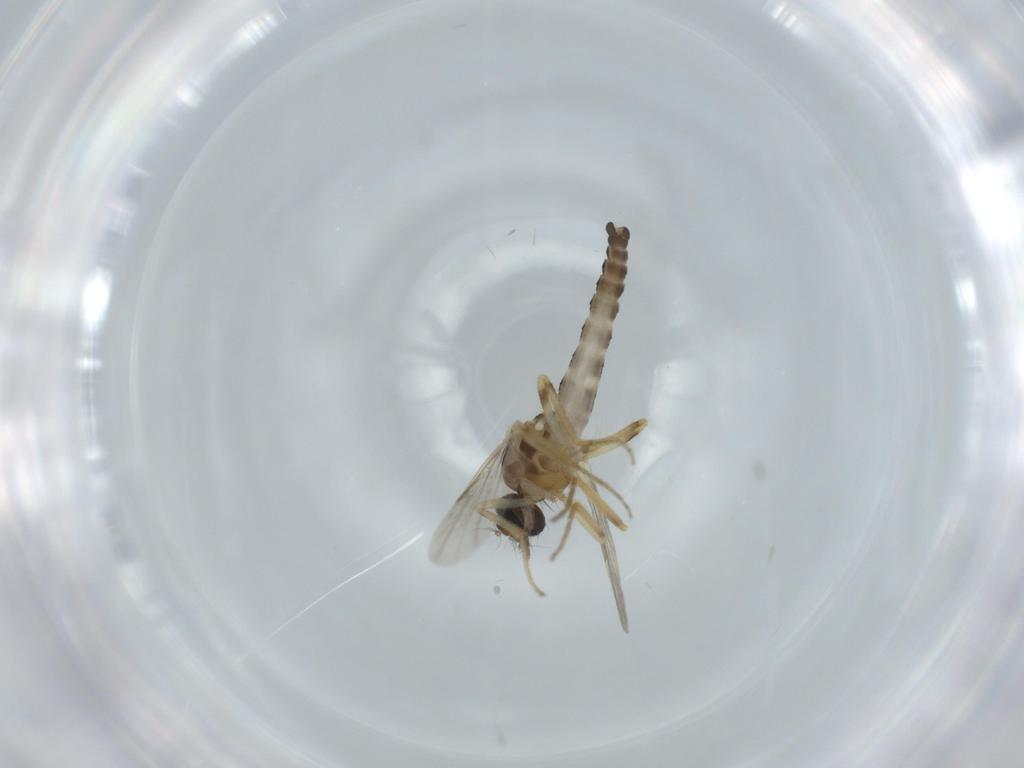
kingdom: Animalia
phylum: Arthropoda
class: Insecta
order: Diptera
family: Ceratopogonidae
